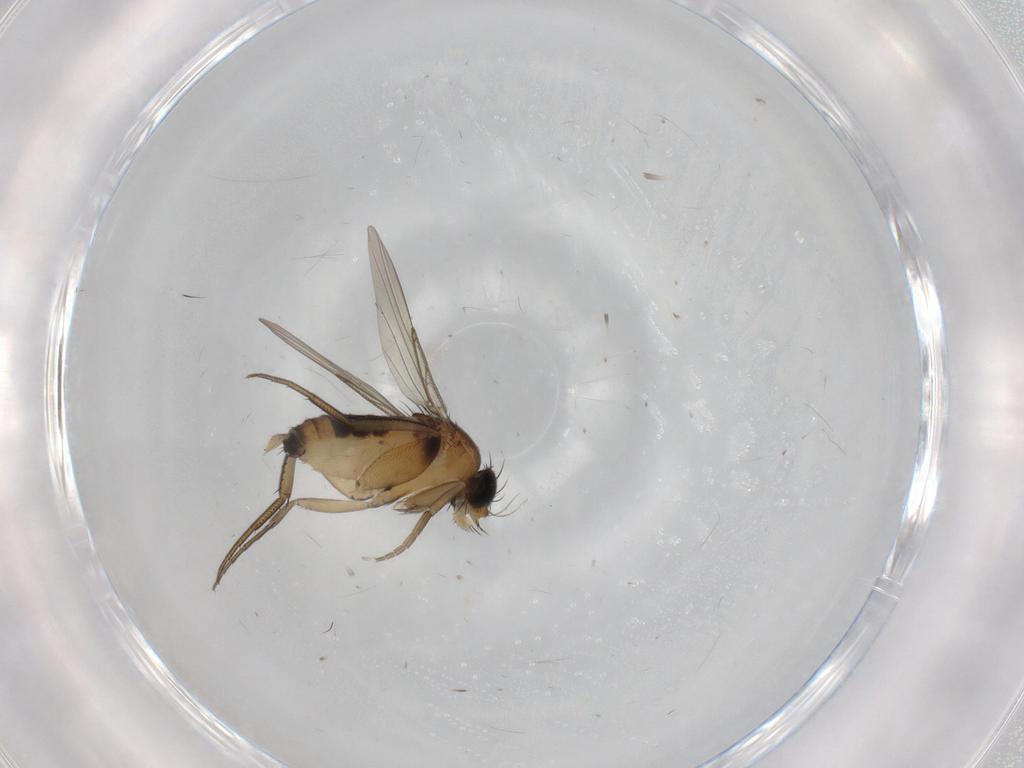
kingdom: Animalia
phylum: Arthropoda
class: Insecta
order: Diptera
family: Phoridae
